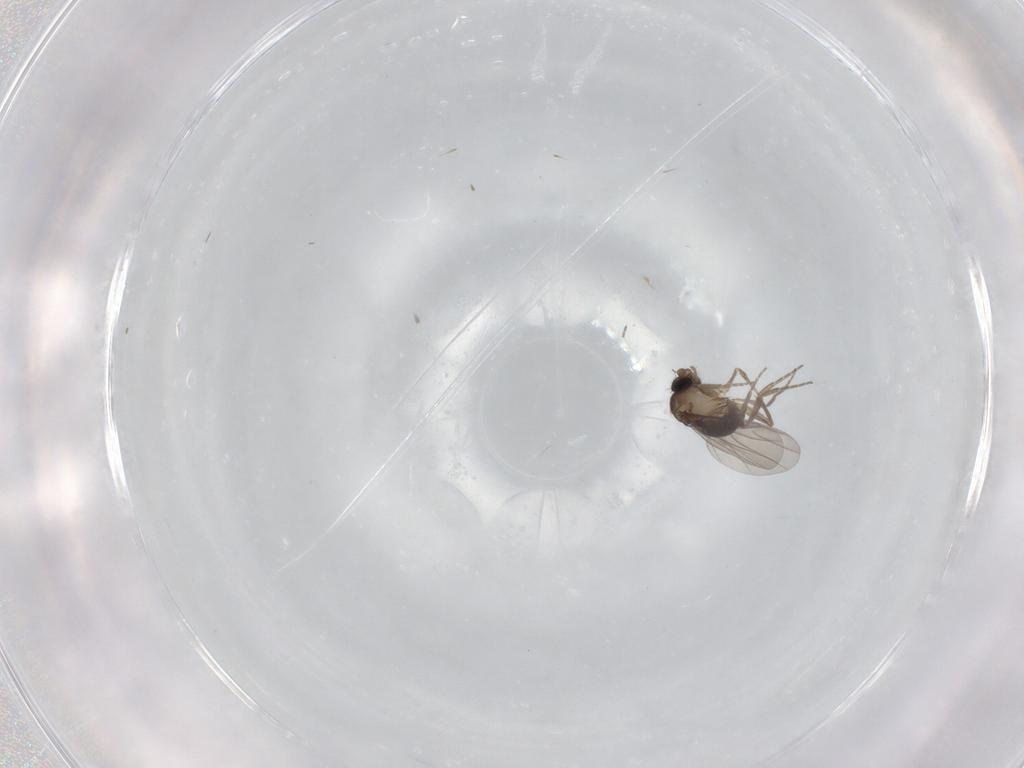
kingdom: Animalia
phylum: Arthropoda
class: Insecta
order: Diptera
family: Phoridae
